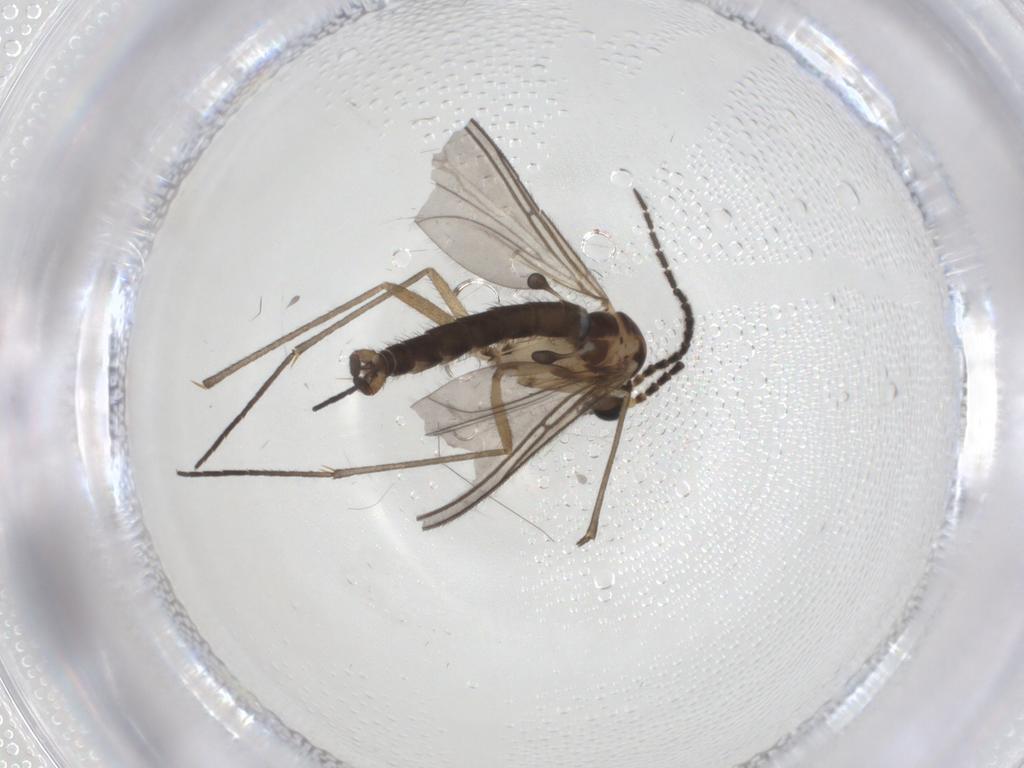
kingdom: Animalia
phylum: Arthropoda
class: Insecta
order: Diptera
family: Sciaridae
